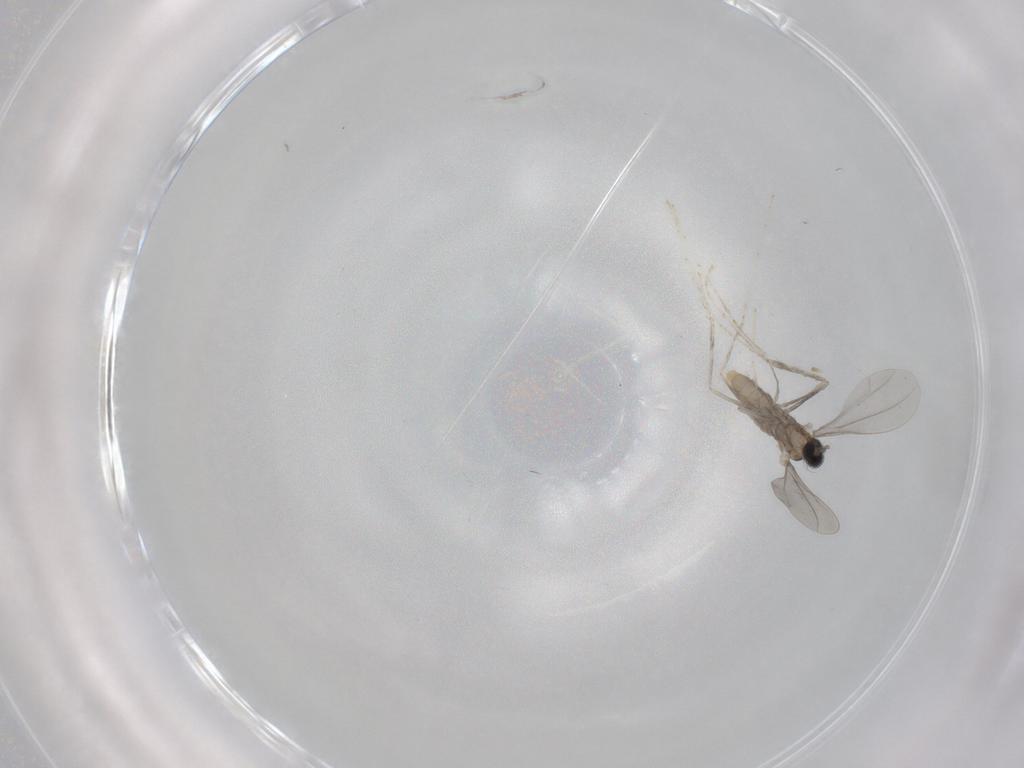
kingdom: Animalia
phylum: Arthropoda
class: Insecta
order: Diptera
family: Cecidomyiidae
